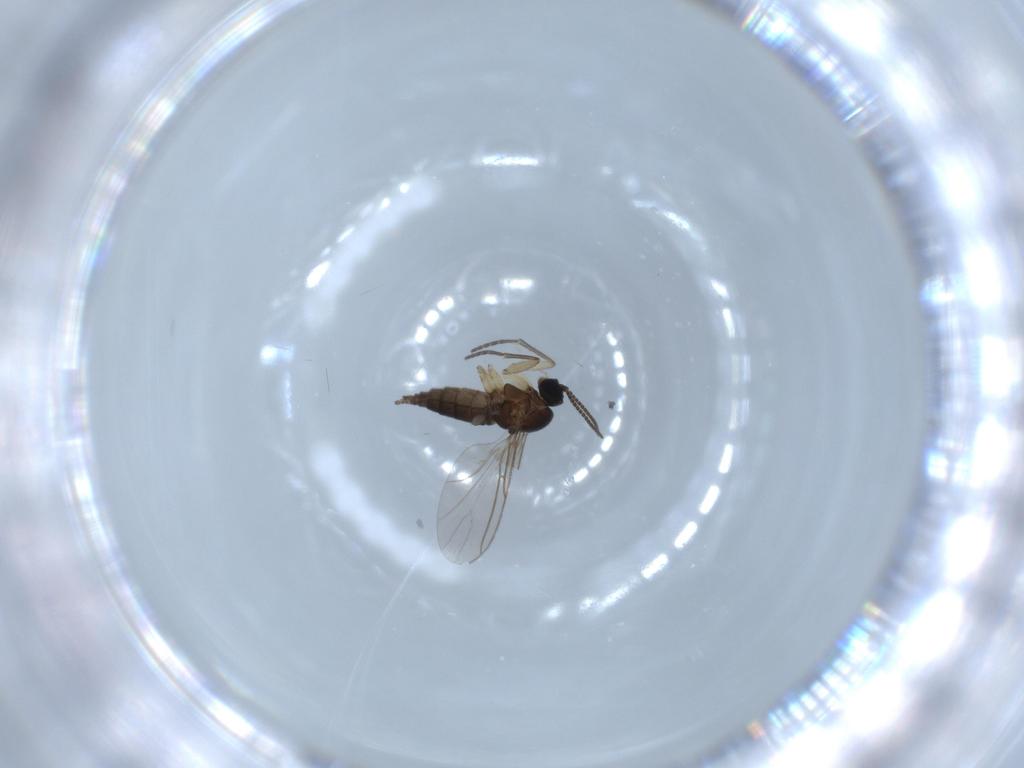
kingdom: Animalia
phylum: Arthropoda
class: Insecta
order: Diptera
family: Sciaridae
